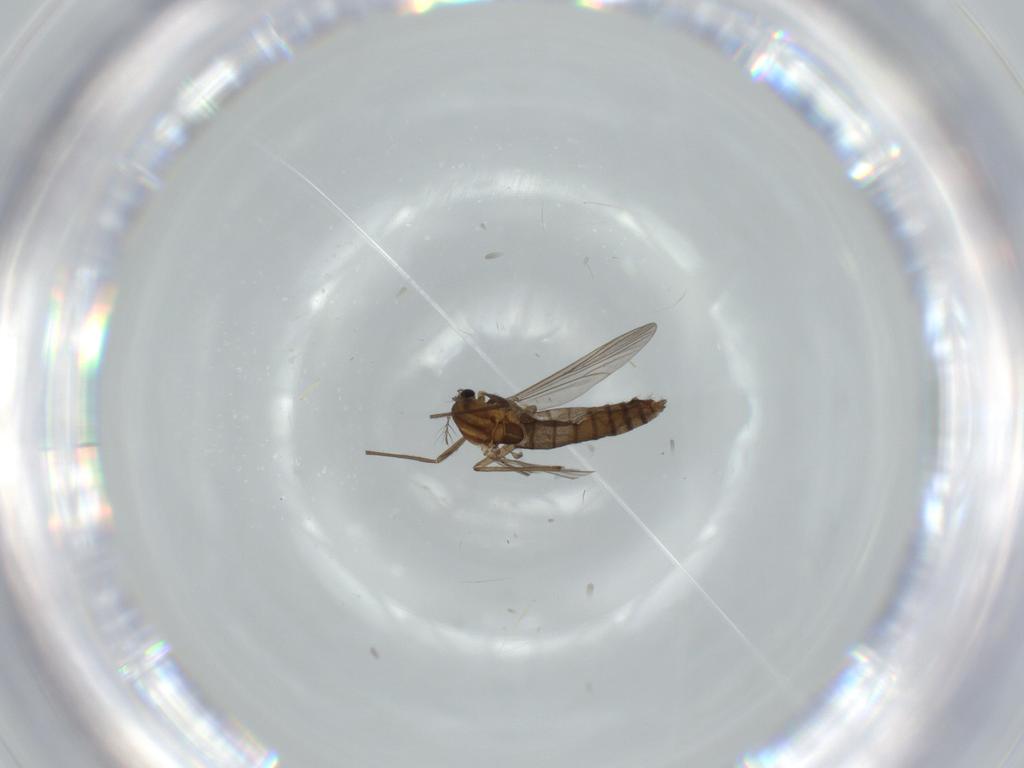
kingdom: Animalia
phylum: Arthropoda
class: Insecta
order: Diptera
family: Chironomidae
